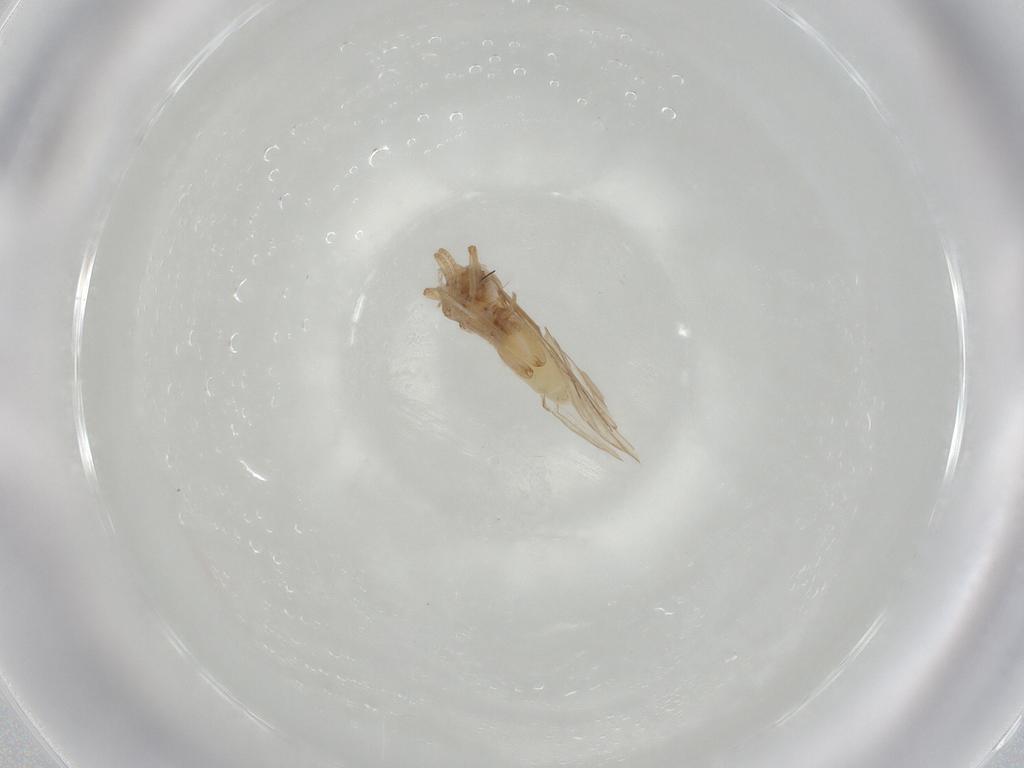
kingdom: Animalia
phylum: Arthropoda
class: Insecta
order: Neuroptera
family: Coniopterygidae
